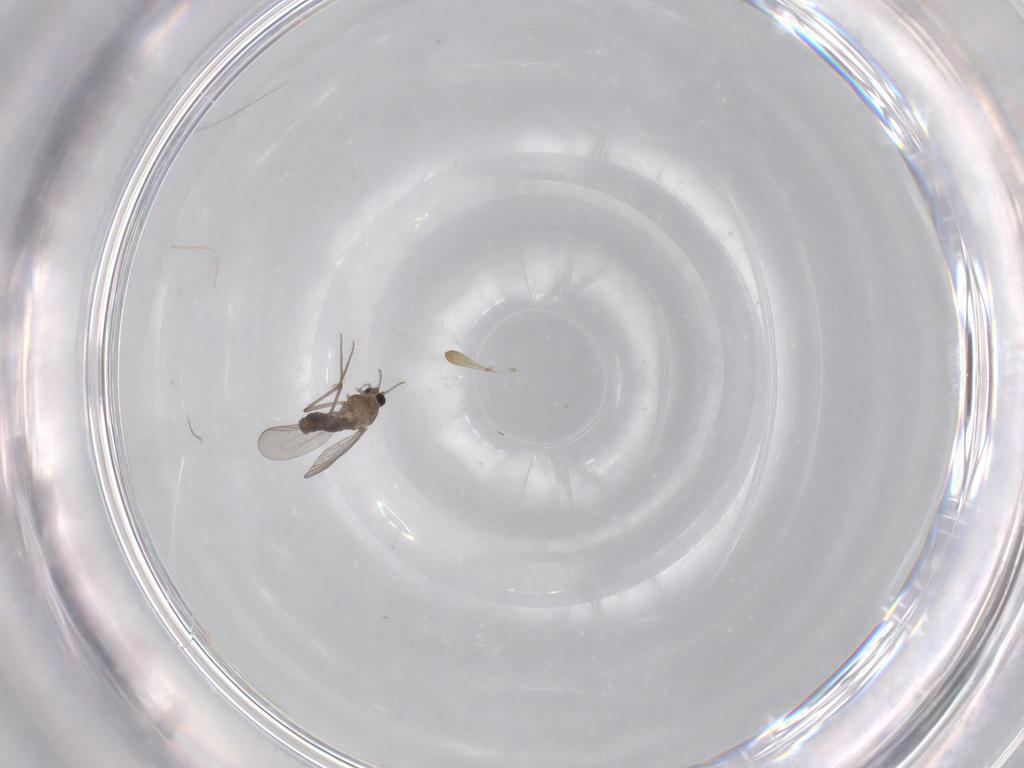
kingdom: Animalia
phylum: Arthropoda
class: Insecta
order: Diptera
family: Chironomidae
